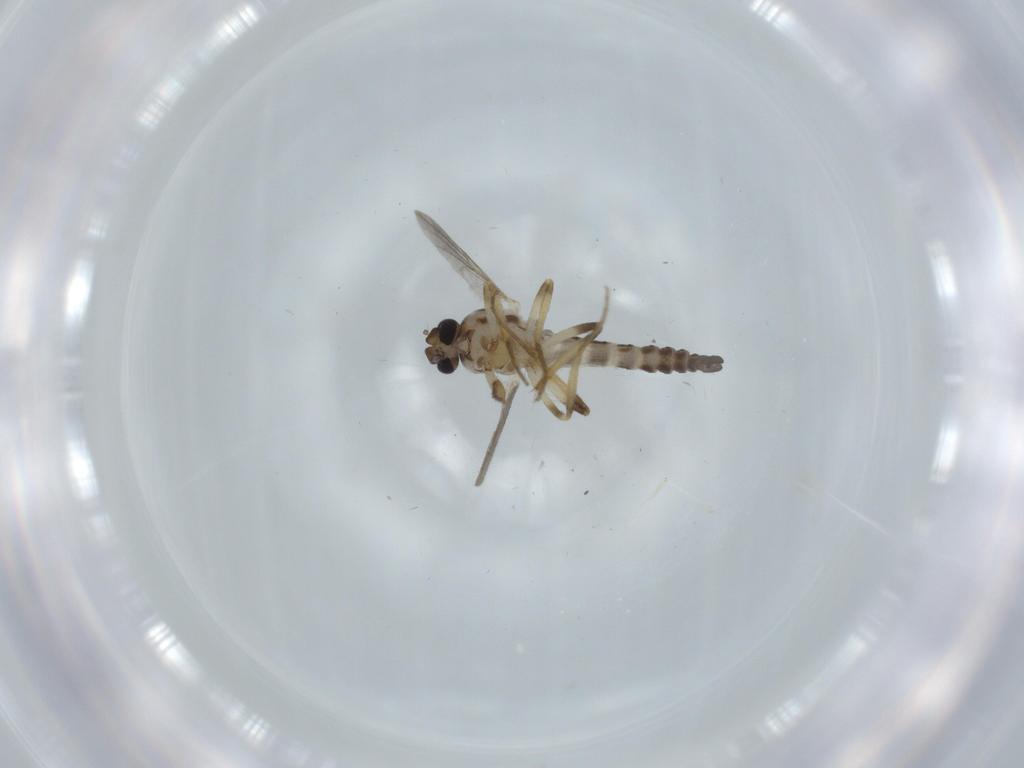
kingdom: Animalia
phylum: Arthropoda
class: Insecta
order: Diptera
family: Ceratopogonidae
